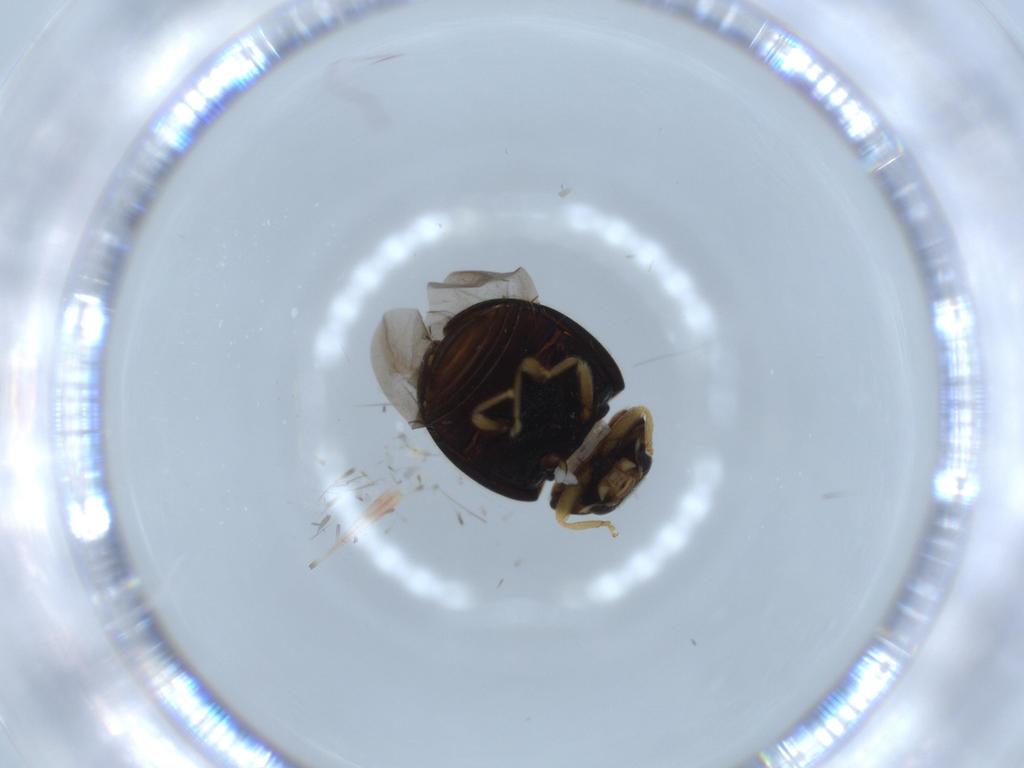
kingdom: Animalia
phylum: Arthropoda
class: Insecta
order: Coleoptera
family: Coccinellidae
